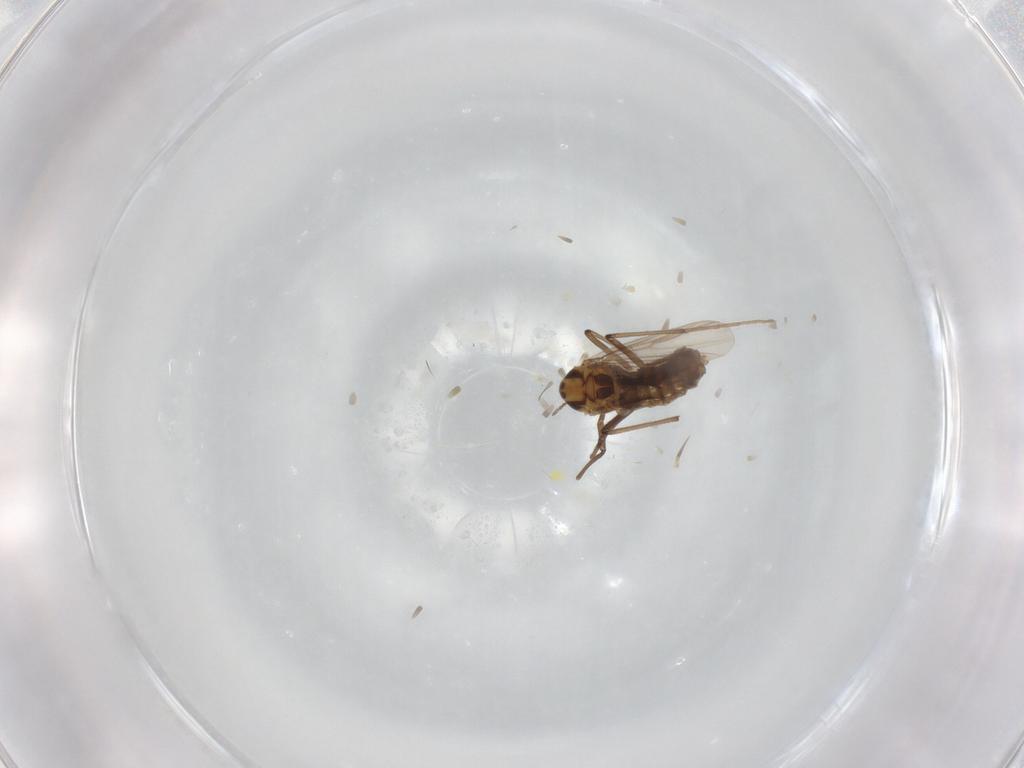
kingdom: Animalia
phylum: Arthropoda
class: Insecta
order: Diptera
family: Chironomidae
